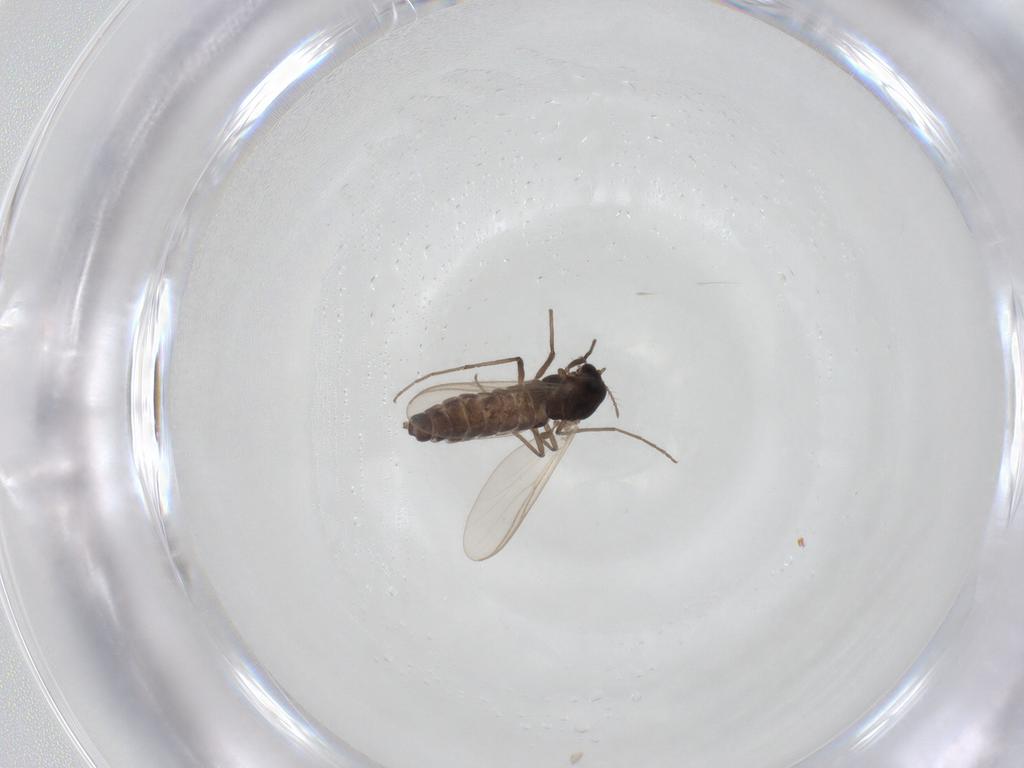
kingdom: Animalia
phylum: Arthropoda
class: Insecta
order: Diptera
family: Chironomidae
